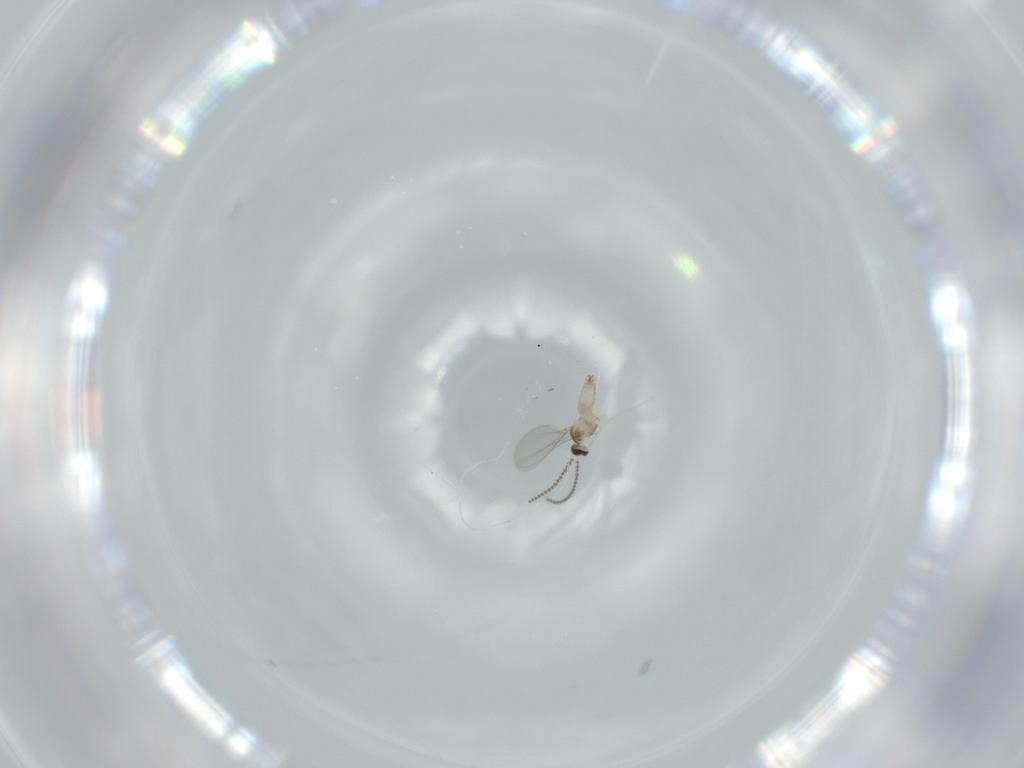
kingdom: Animalia
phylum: Arthropoda
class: Insecta
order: Diptera
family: Cecidomyiidae
